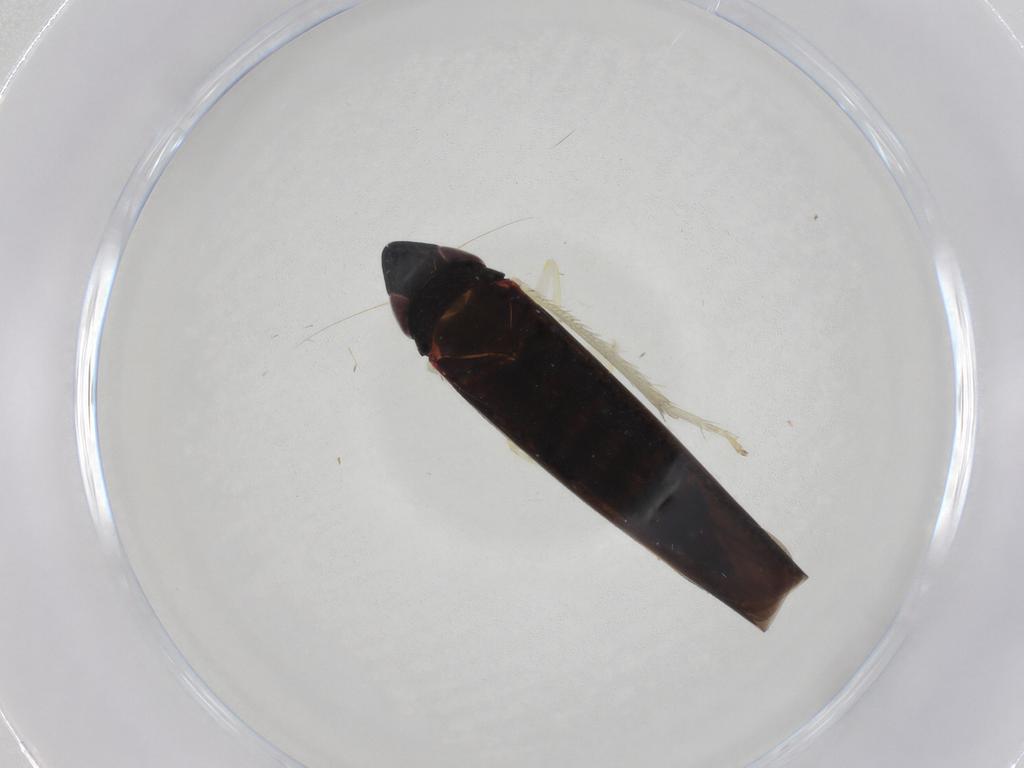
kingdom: Animalia
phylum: Arthropoda
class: Insecta
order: Hemiptera
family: Cicadellidae
